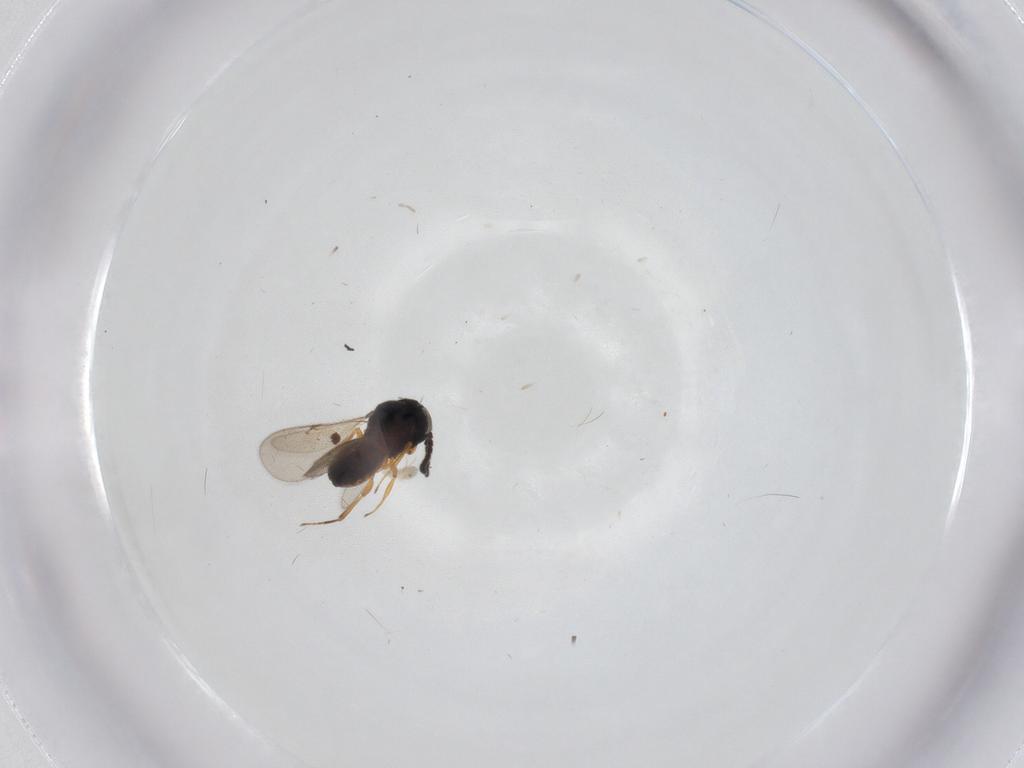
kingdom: Animalia
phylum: Arthropoda
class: Insecta
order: Hymenoptera
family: Scelionidae
